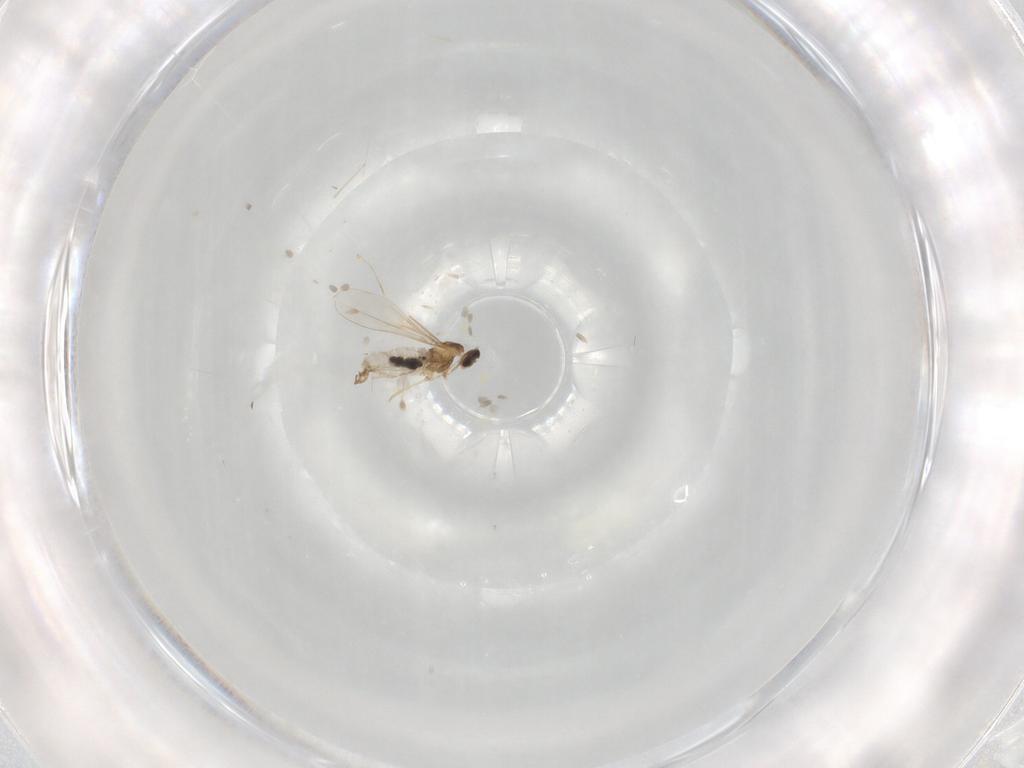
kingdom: Animalia
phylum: Arthropoda
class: Insecta
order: Diptera
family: Cecidomyiidae
